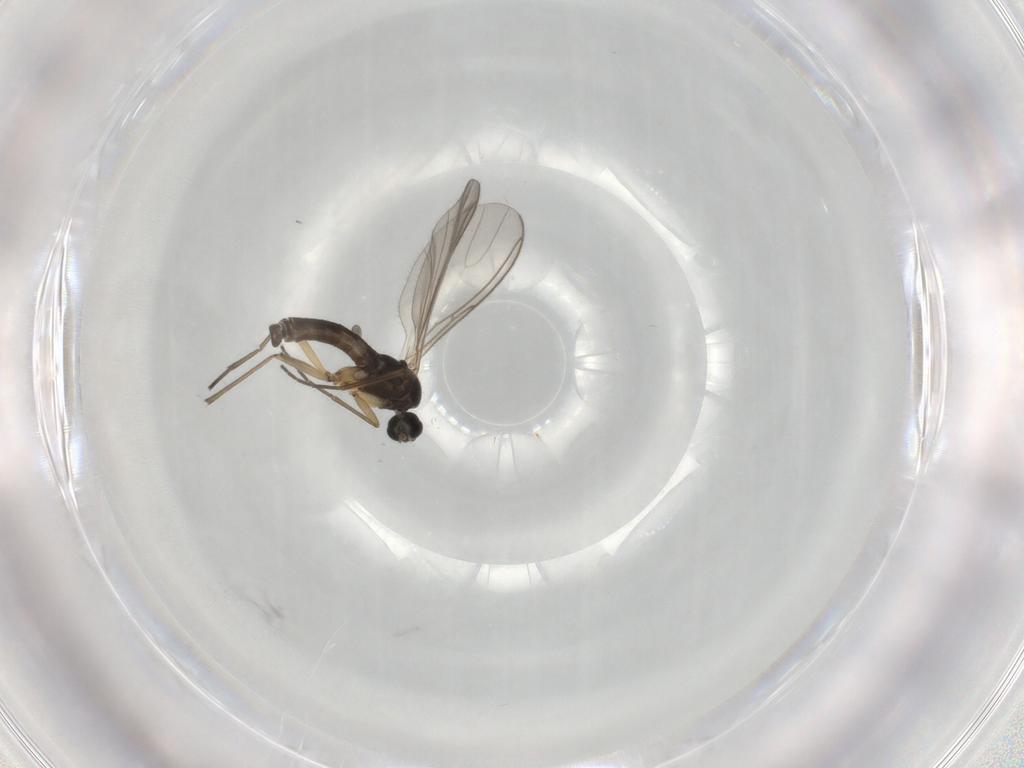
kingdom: Animalia
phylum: Arthropoda
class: Insecta
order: Diptera
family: Sciaridae
